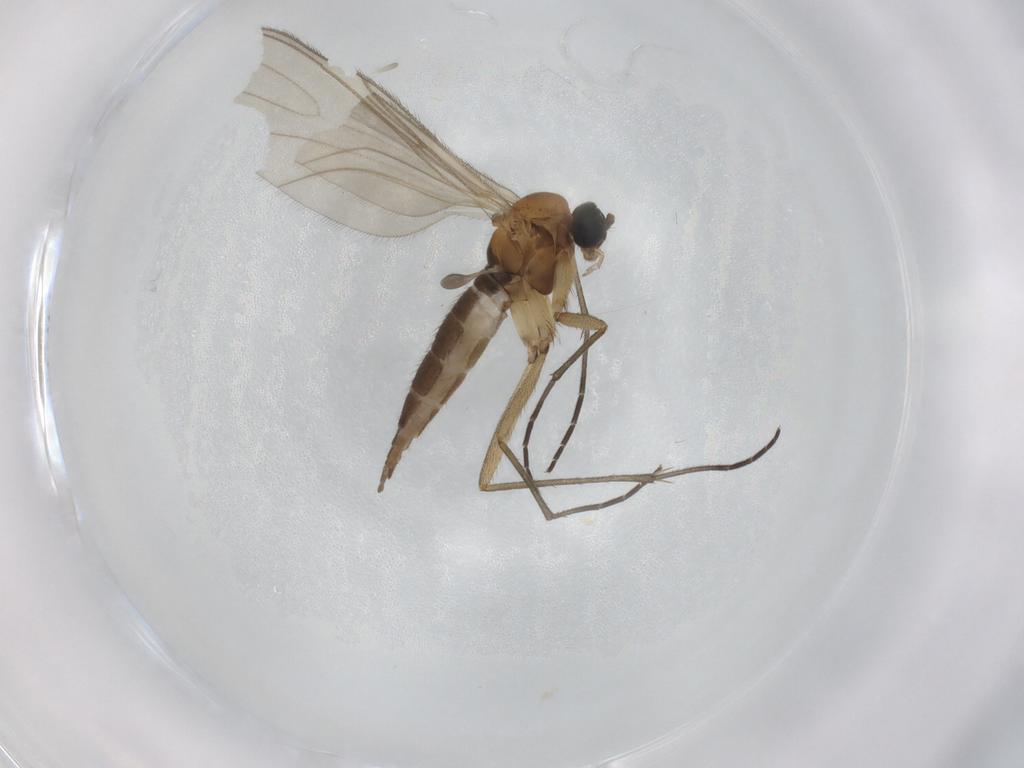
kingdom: Animalia
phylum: Arthropoda
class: Insecta
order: Diptera
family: Sciaridae
